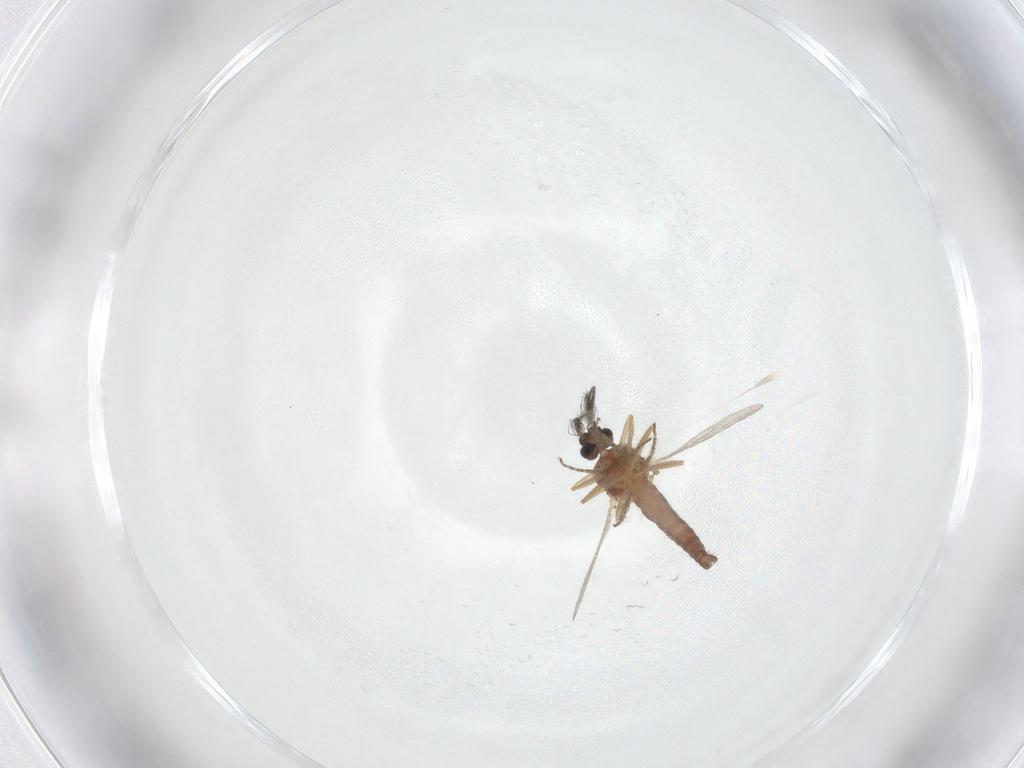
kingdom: Animalia
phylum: Arthropoda
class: Insecta
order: Diptera
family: Ceratopogonidae
